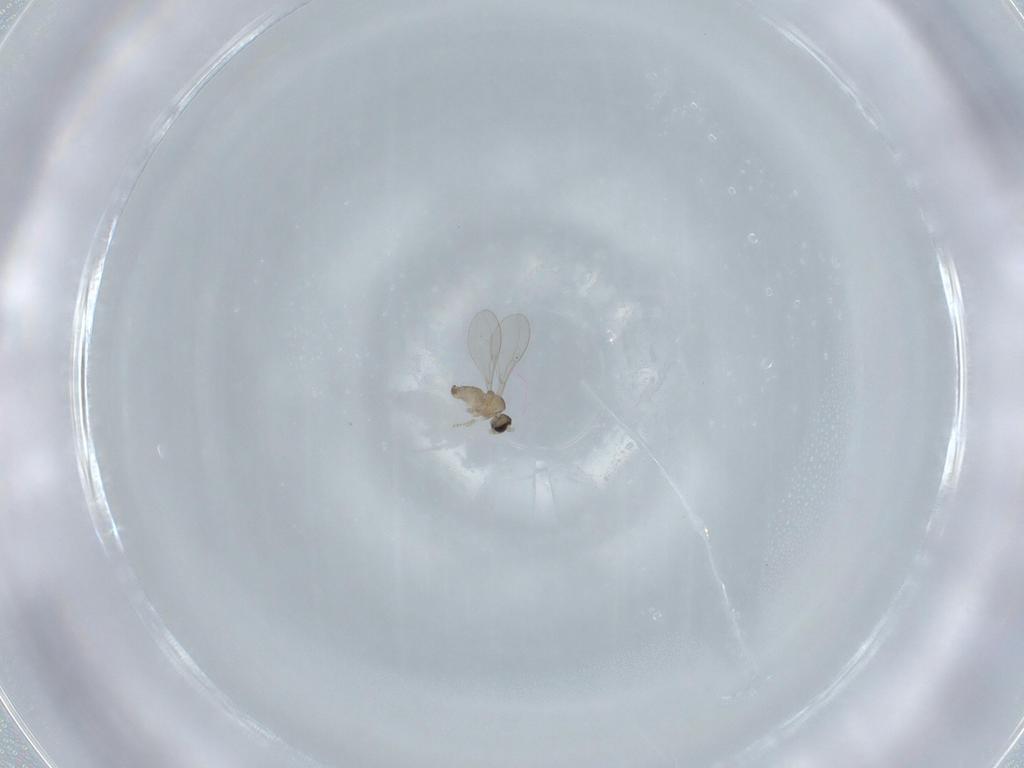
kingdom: Animalia
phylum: Arthropoda
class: Insecta
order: Diptera
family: Cecidomyiidae
